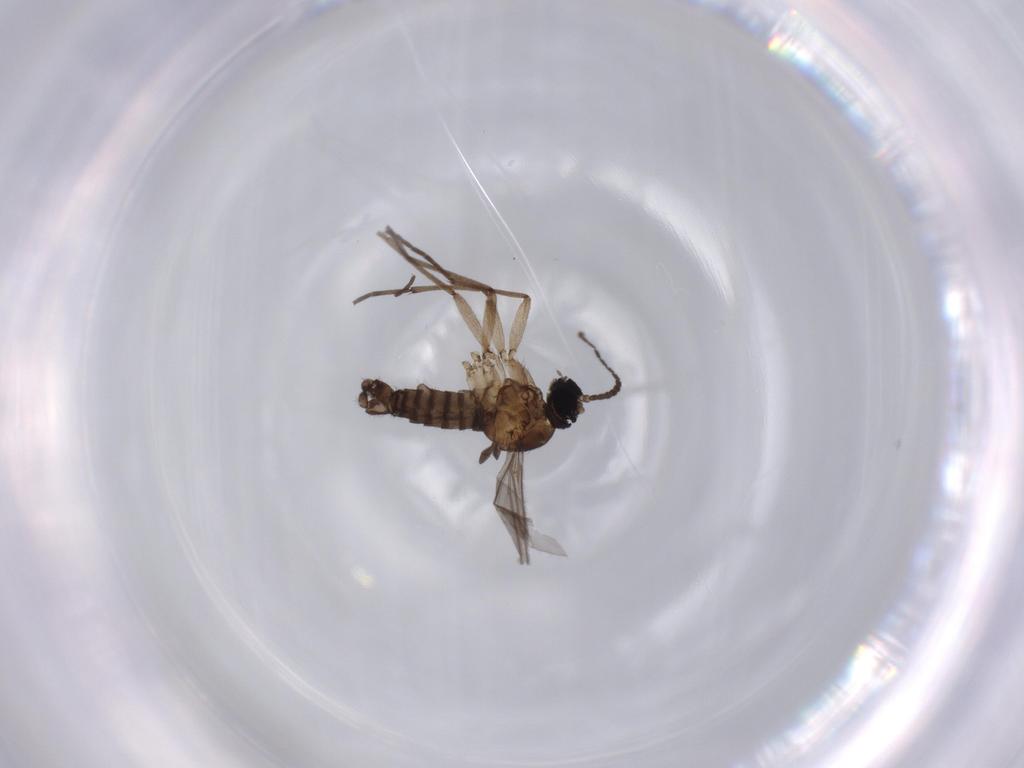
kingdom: Animalia
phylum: Arthropoda
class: Insecta
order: Diptera
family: Sciaridae
